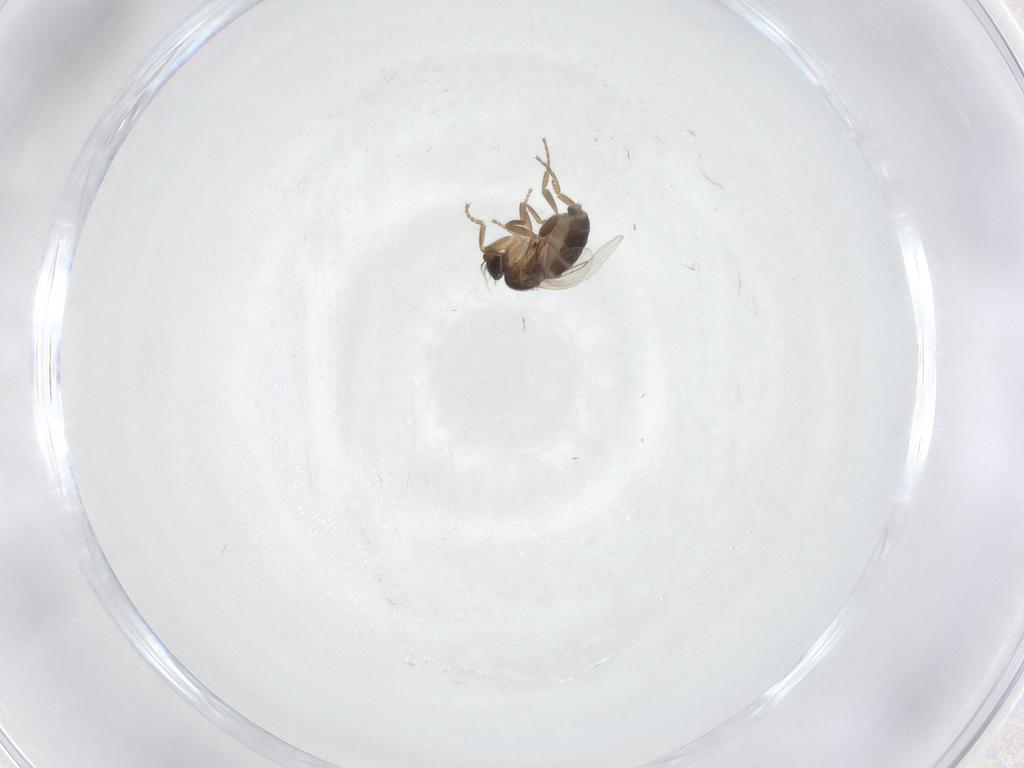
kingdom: Animalia
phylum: Arthropoda
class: Insecta
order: Diptera
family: Phoridae
